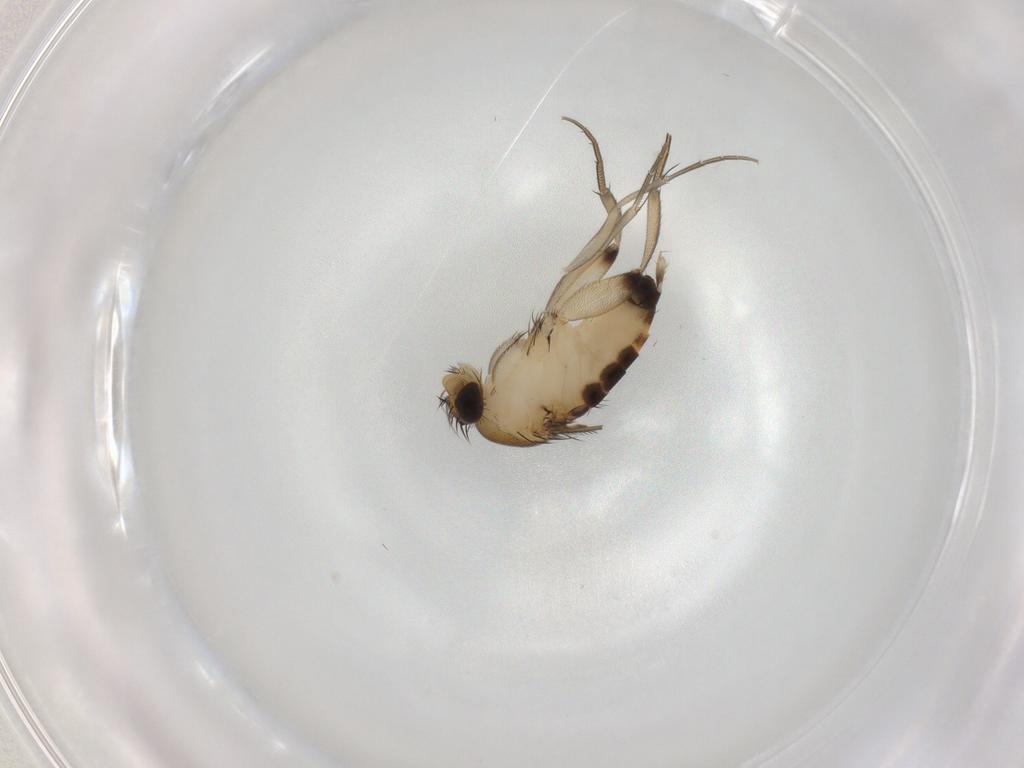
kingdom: Animalia
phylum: Arthropoda
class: Insecta
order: Diptera
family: Phoridae
